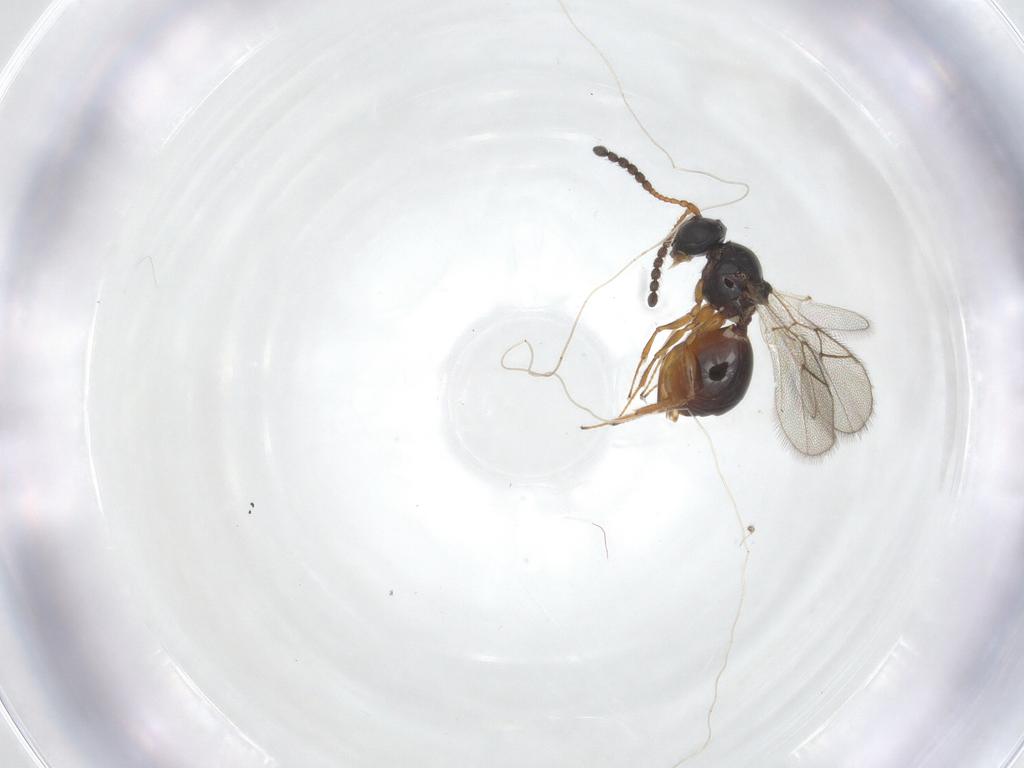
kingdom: Animalia
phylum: Arthropoda
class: Insecta
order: Hymenoptera
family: Figitidae
